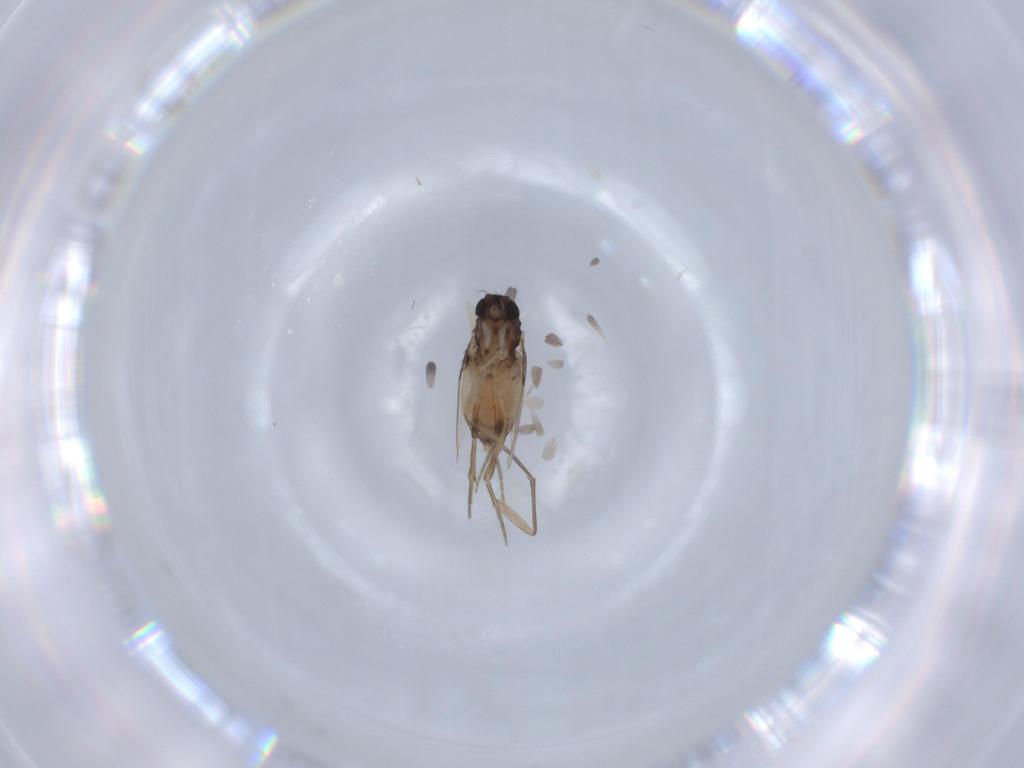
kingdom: Animalia
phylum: Arthropoda
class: Insecta
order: Diptera
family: Phoridae
